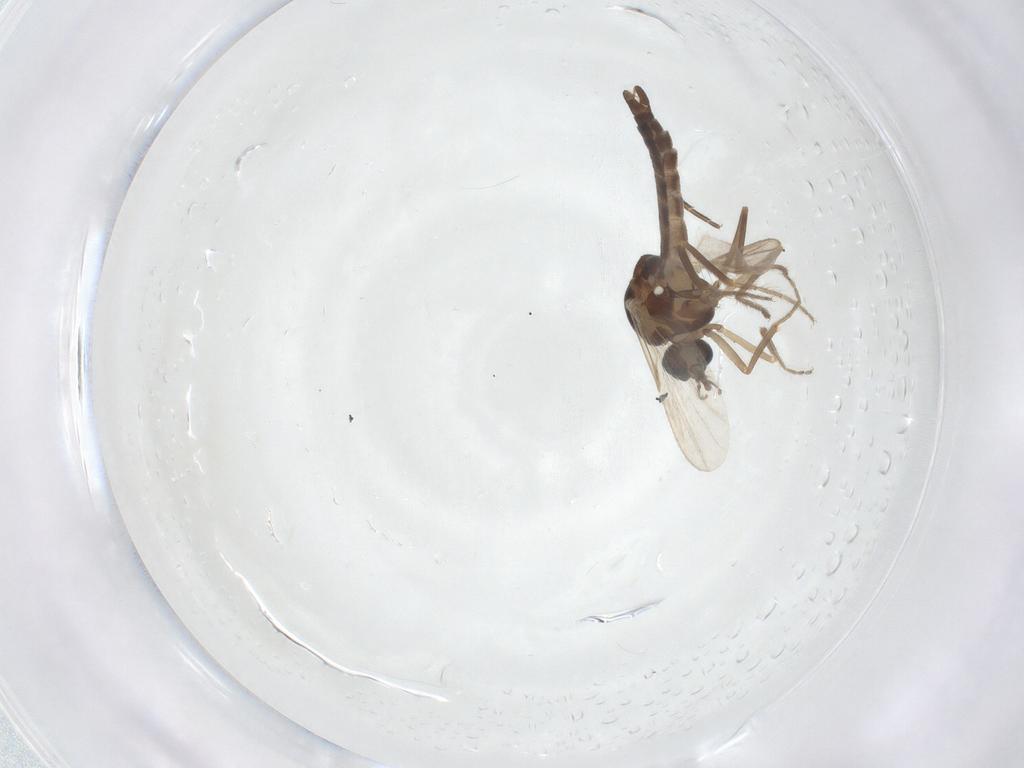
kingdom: Animalia
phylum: Arthropoda
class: Insecta
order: Diptera
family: Ceratopogonidae
